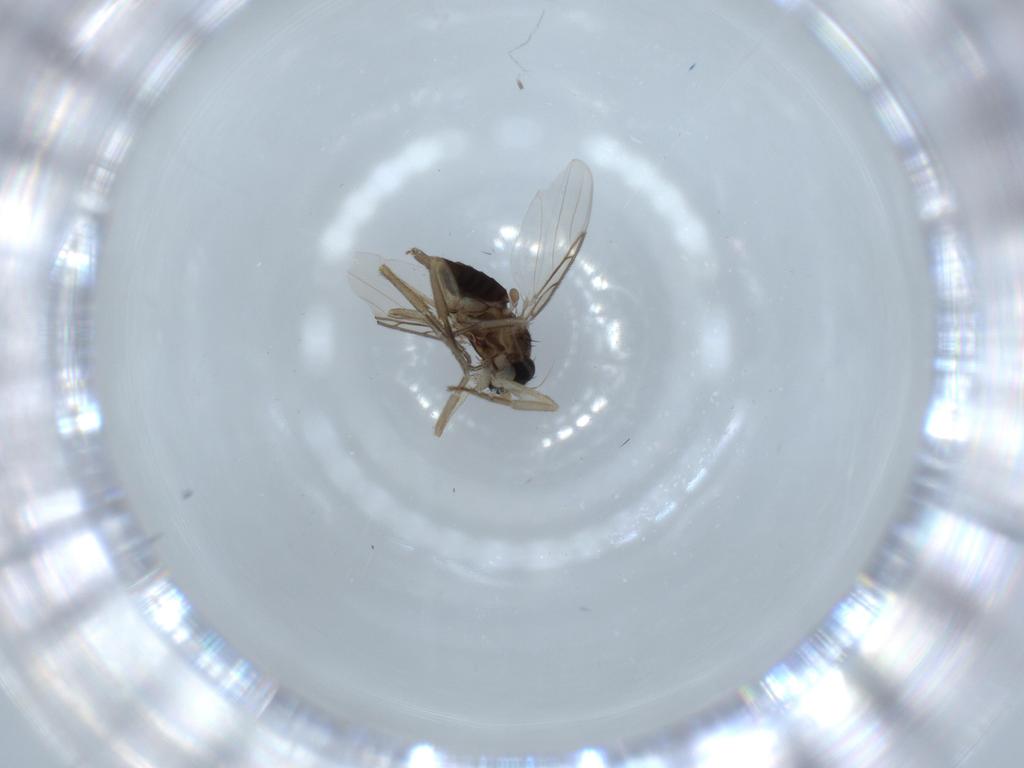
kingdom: Animalia
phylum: Arthropoda
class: Insecta
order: Diptera
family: Phoridae
